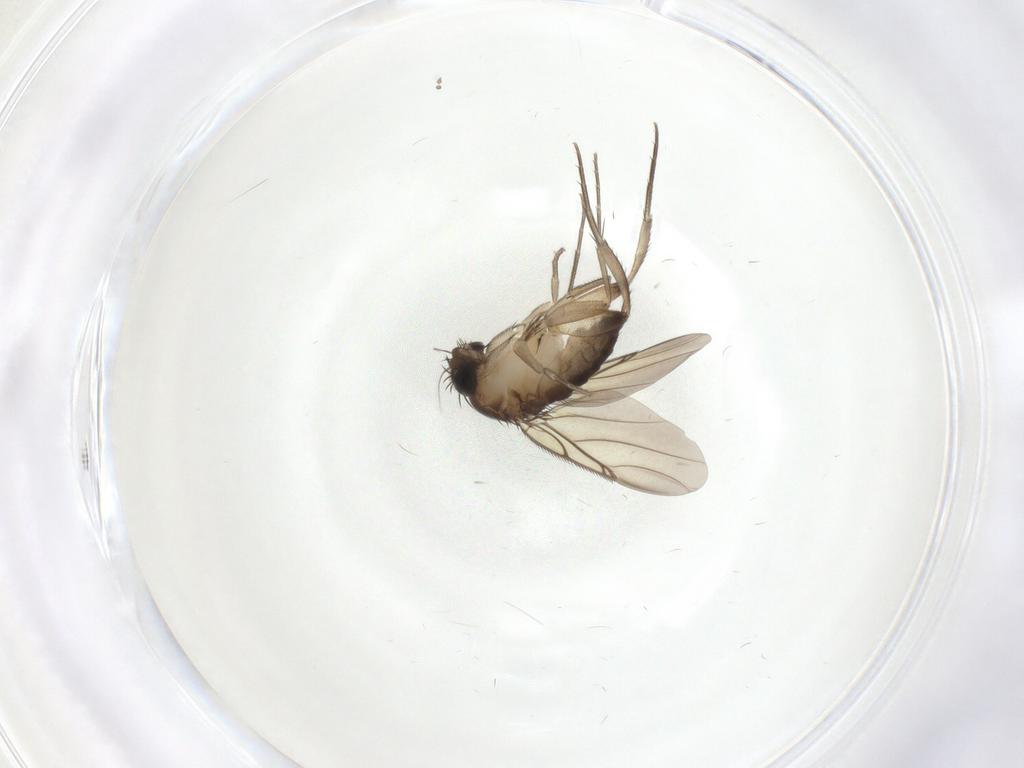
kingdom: Animalia
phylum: Arthropoda
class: Insecta
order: Diptera
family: Phoridae
